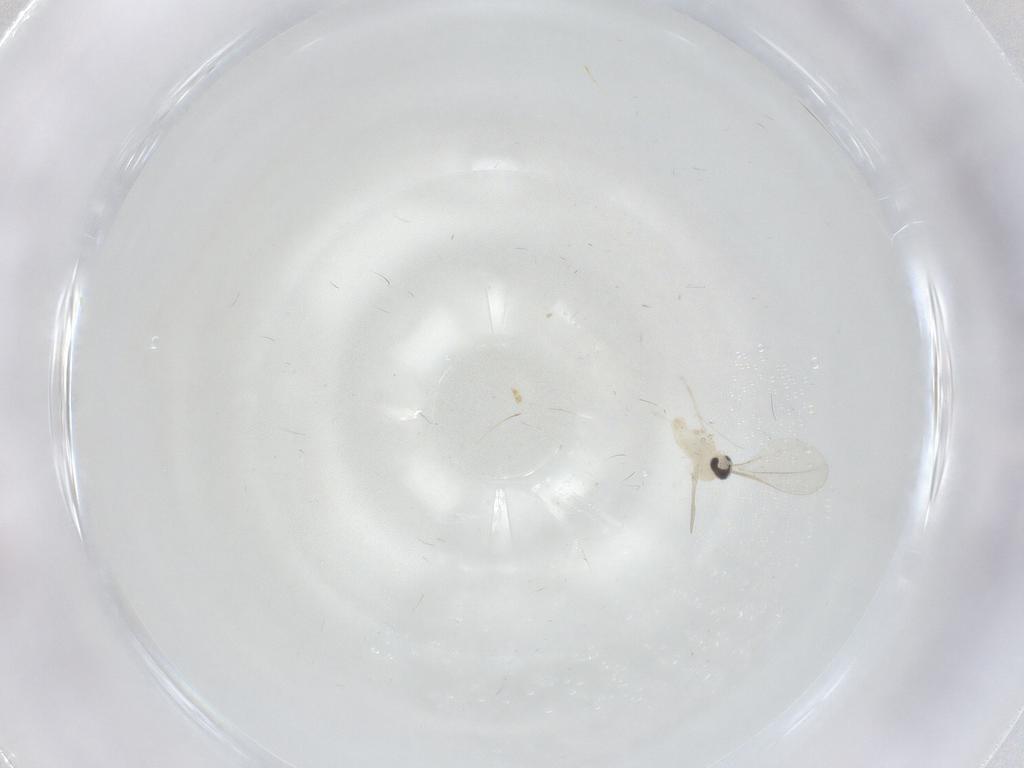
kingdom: Animalia
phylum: Arthropoda
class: Insecta
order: Diptera
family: Cecidomyiidae
